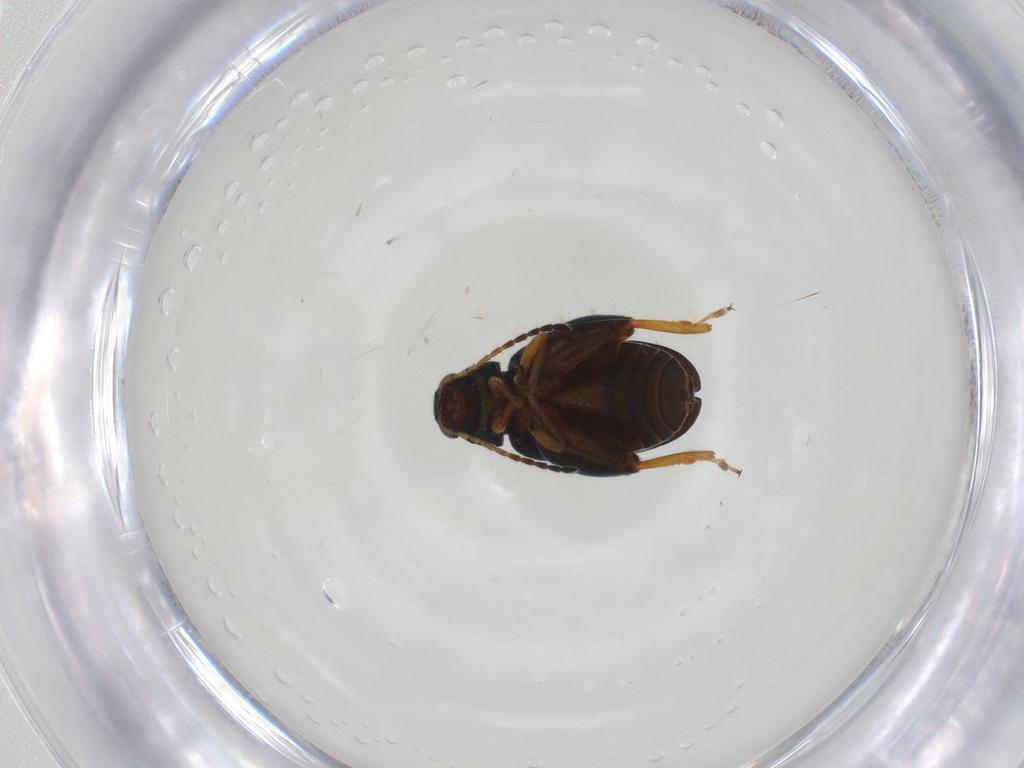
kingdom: Animalia
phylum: Arthropoda
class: Insecta
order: Coleoptera
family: Chrysomelidae
